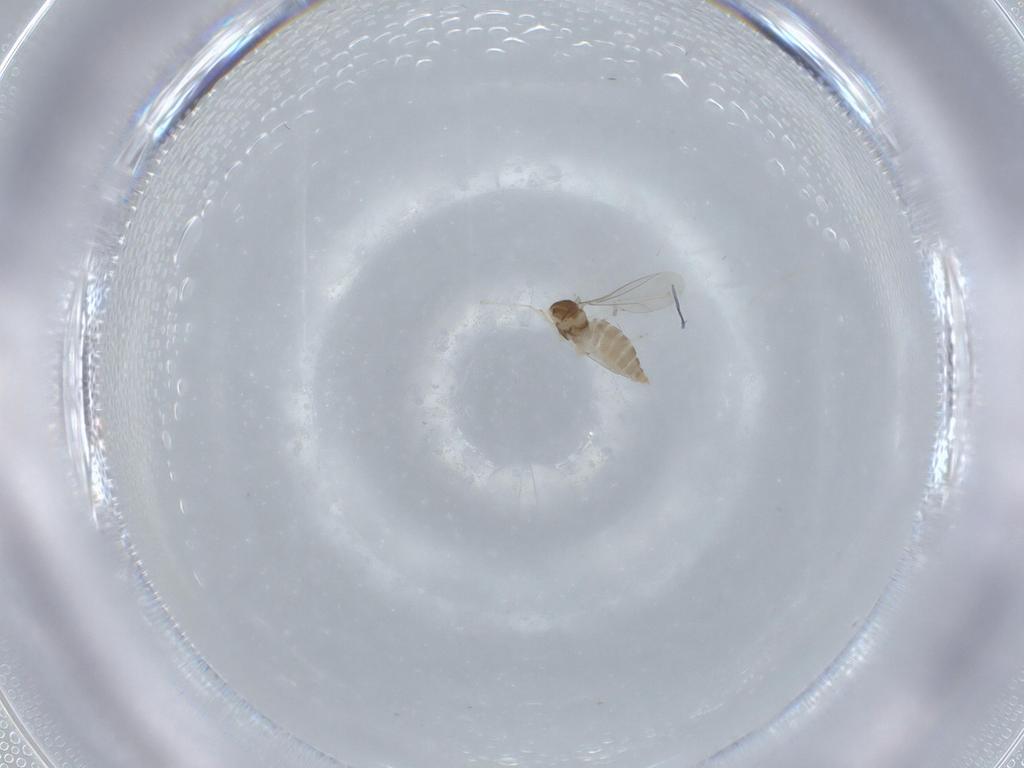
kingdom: Animalia
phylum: Arthropoda
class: Insecta
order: Diptera
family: Cecidomyiidae
